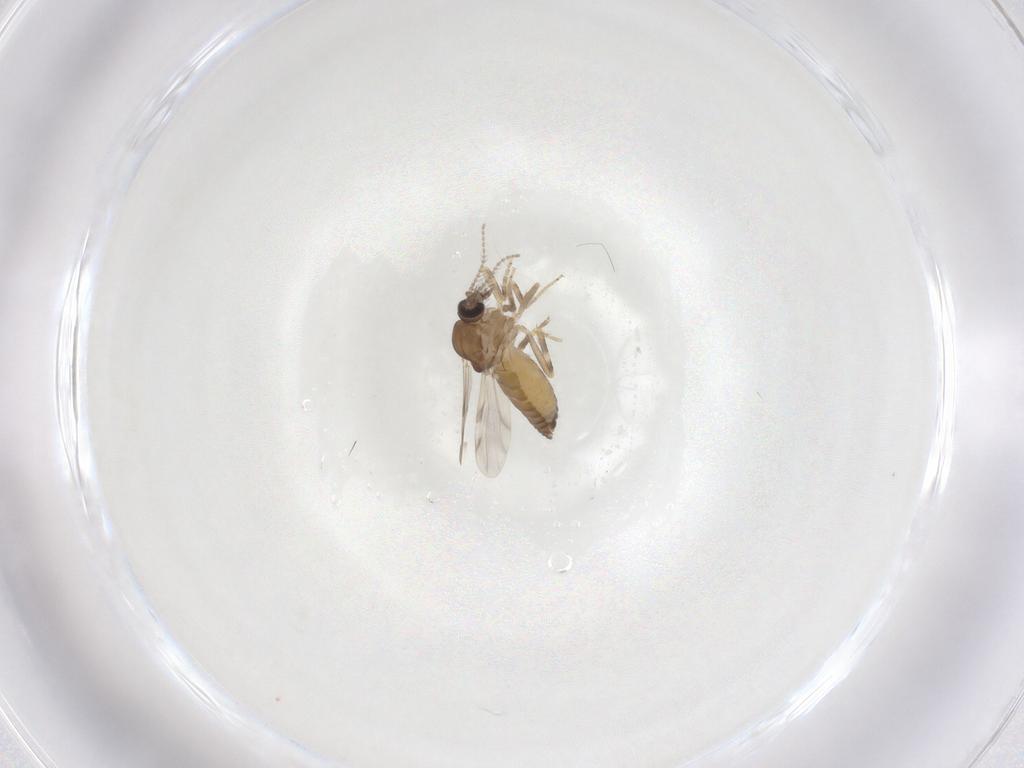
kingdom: Animalia
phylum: Arthropoda
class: Insecta
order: Diptera
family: Ceratopogonidae
